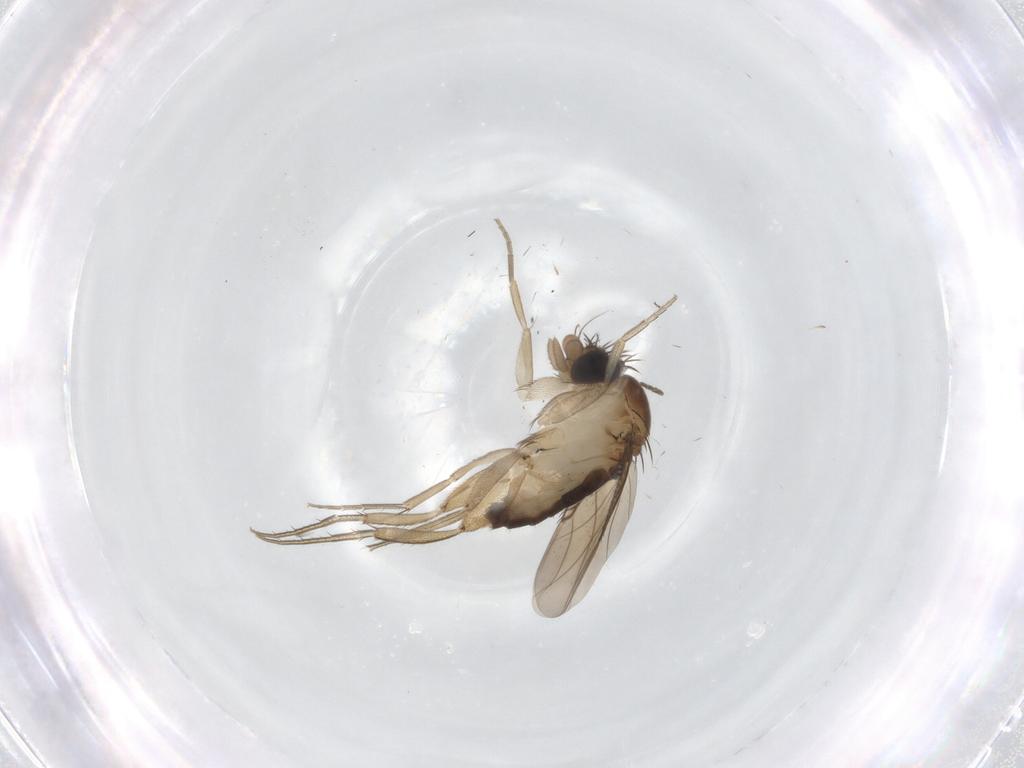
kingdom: Animalia
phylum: Arthropoda
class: Insecta
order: Diptera
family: Phoridae
